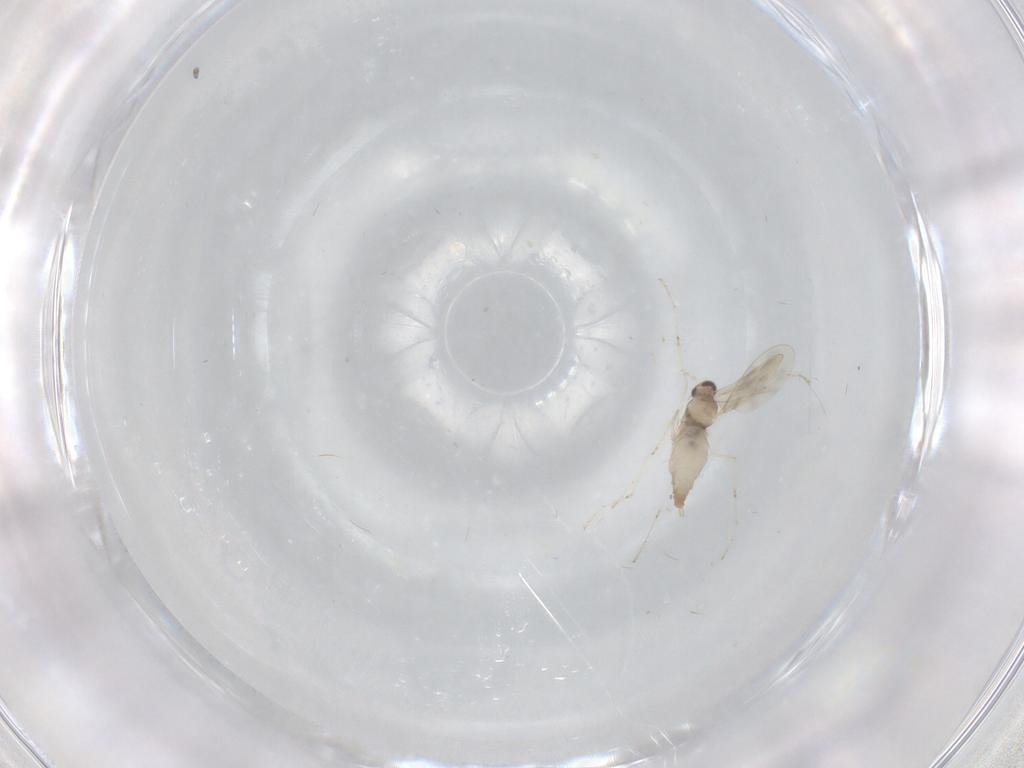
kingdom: Animalia
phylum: Arthropoda
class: Insecta
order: Diptera
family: Cecidomyiidae
